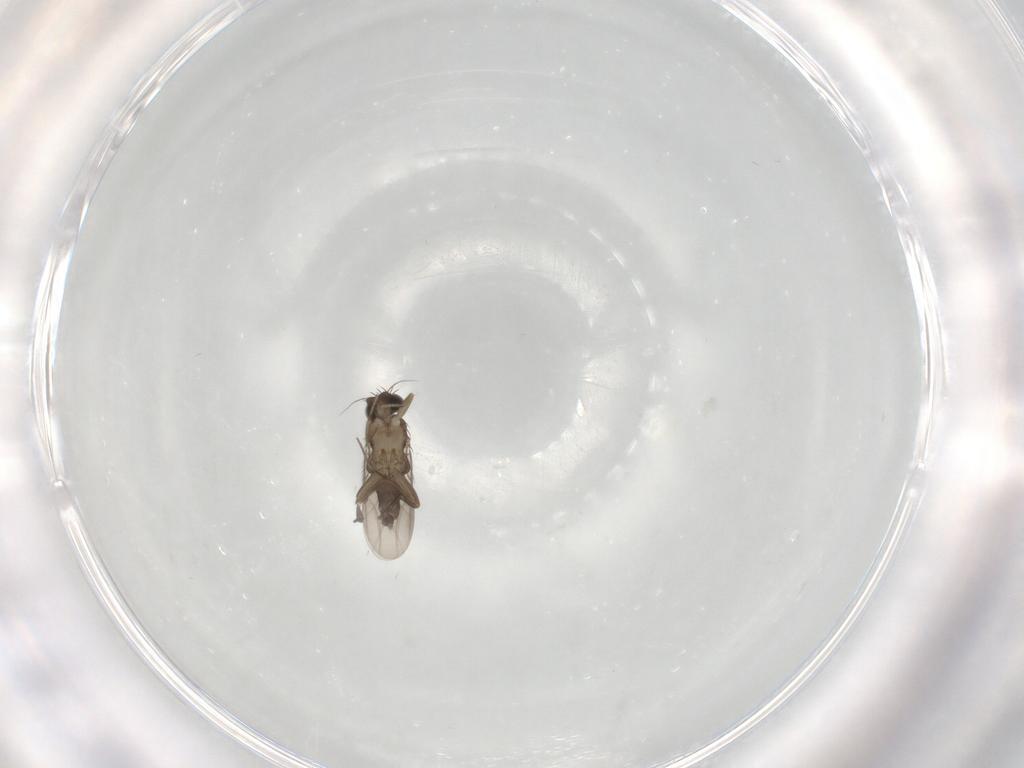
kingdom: Animalia
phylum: Arthropoda
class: Insecta
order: Diptera
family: Phoridae
